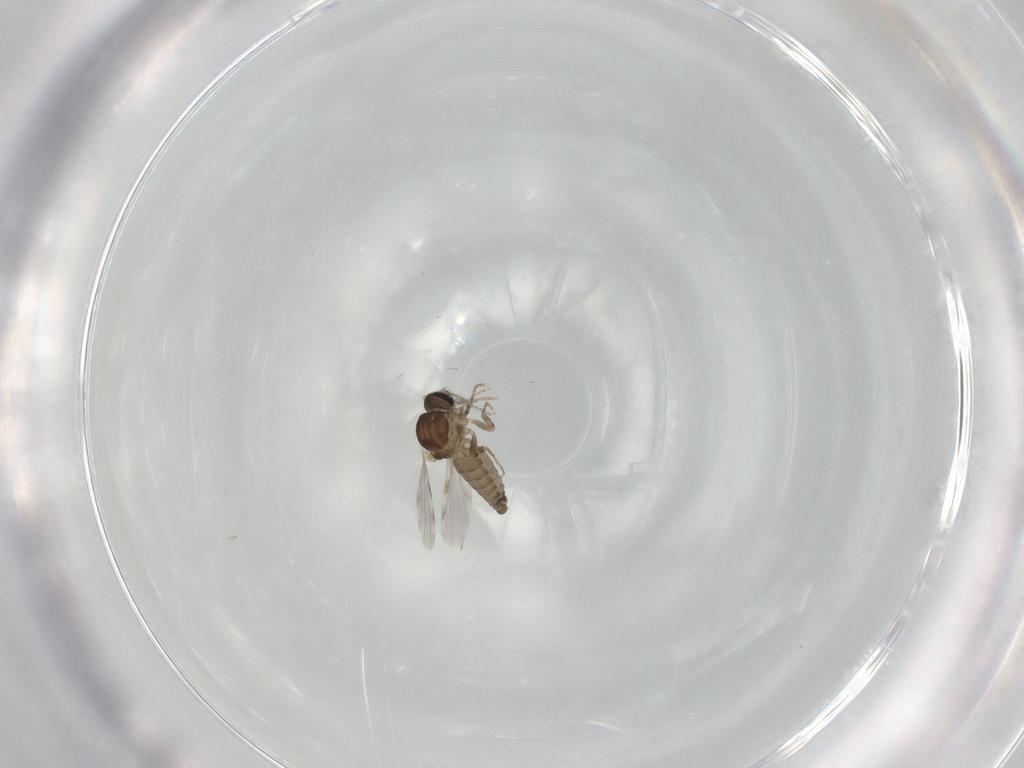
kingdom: Animalia
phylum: Arthropoda
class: Insecta
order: Diptera
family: Ceratopogonidae
